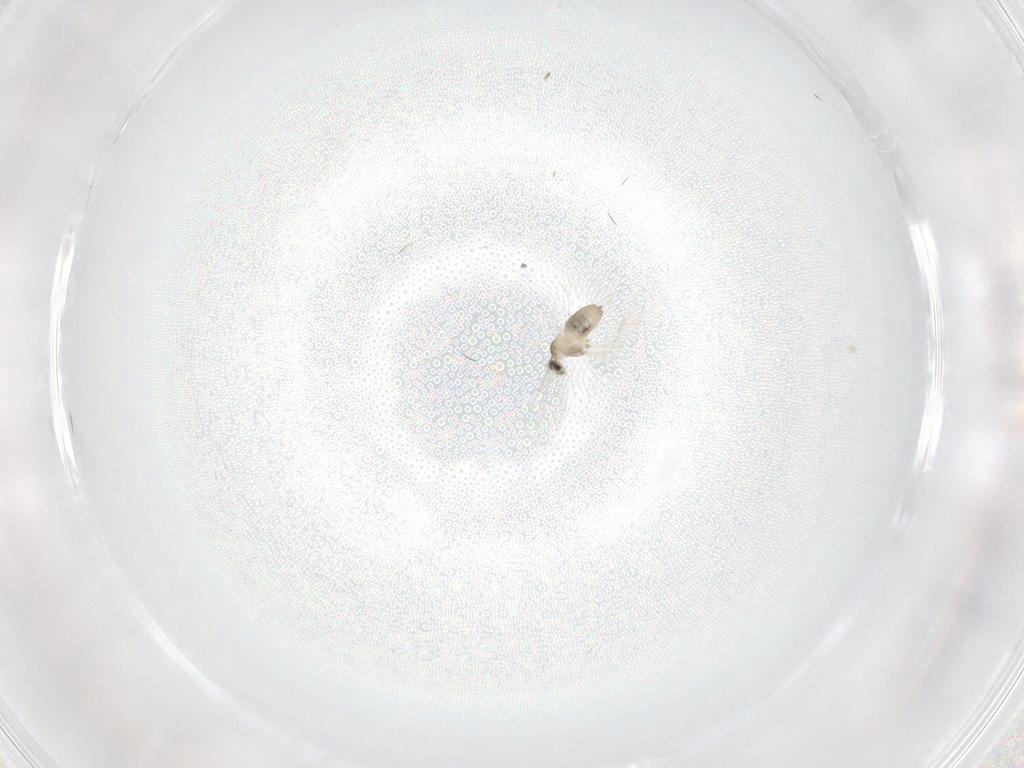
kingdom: Animalia
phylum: Arthropoda
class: Insecta
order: Diptera
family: Cecidomyiidae
